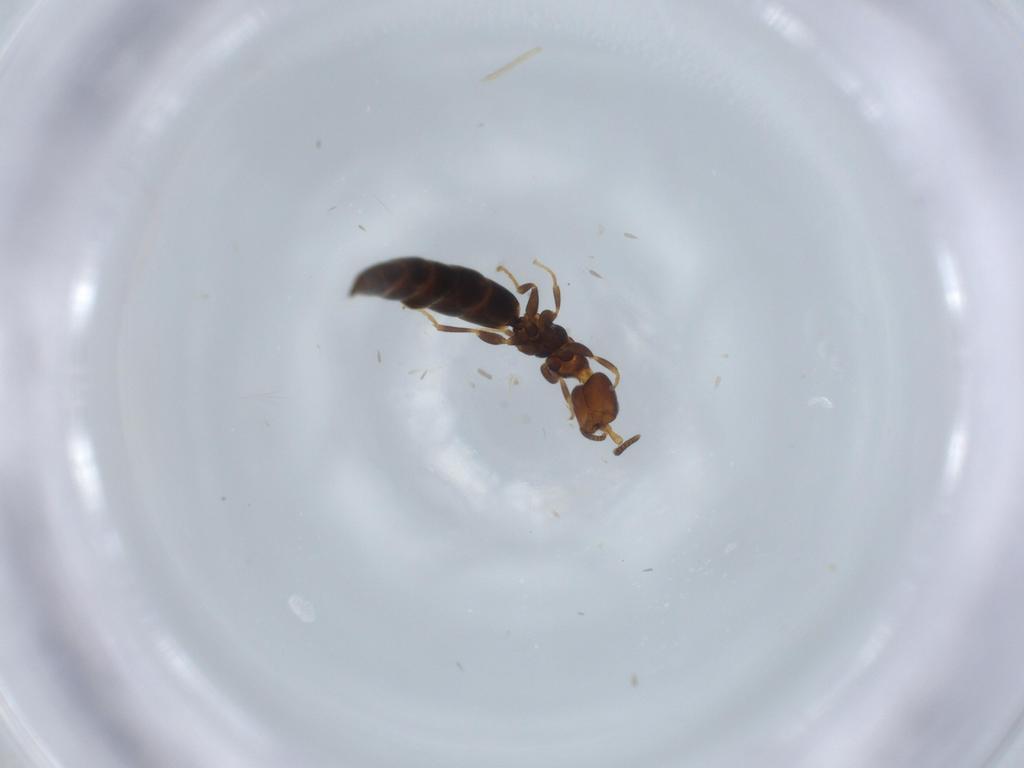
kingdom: Animalia
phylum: Arthropoda
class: Insecta
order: Hymenoptera
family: Bethylidae
